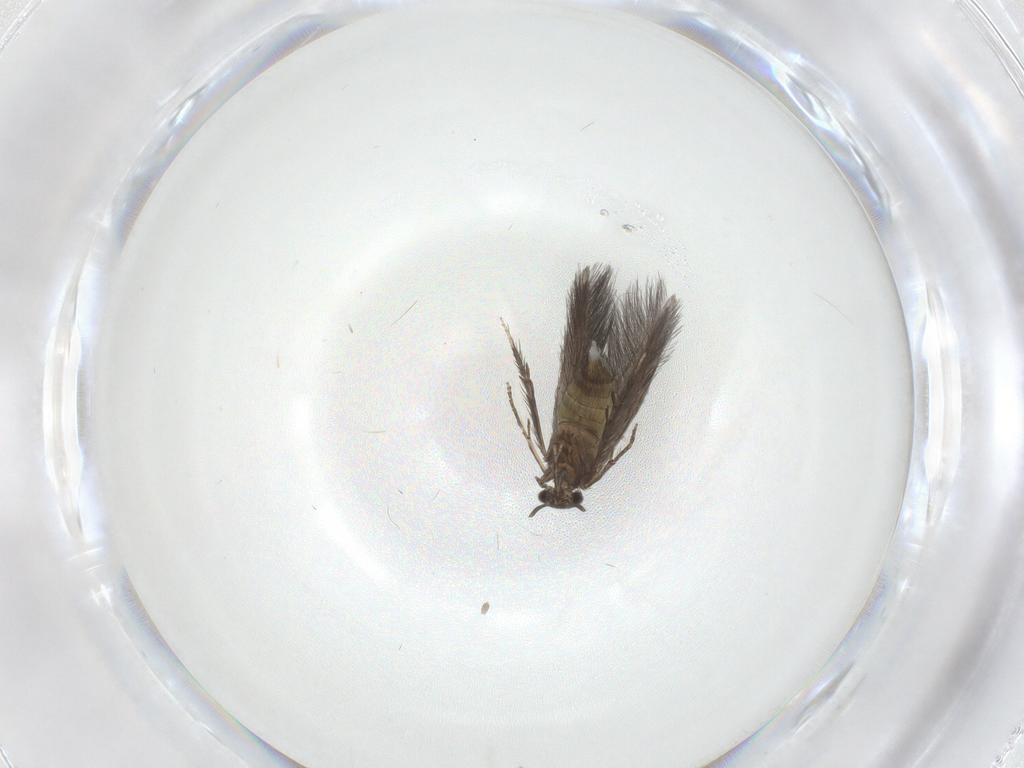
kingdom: Animalia
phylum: Arthropoda
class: Insecta
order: Trichoptera
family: Hydroptilidae
